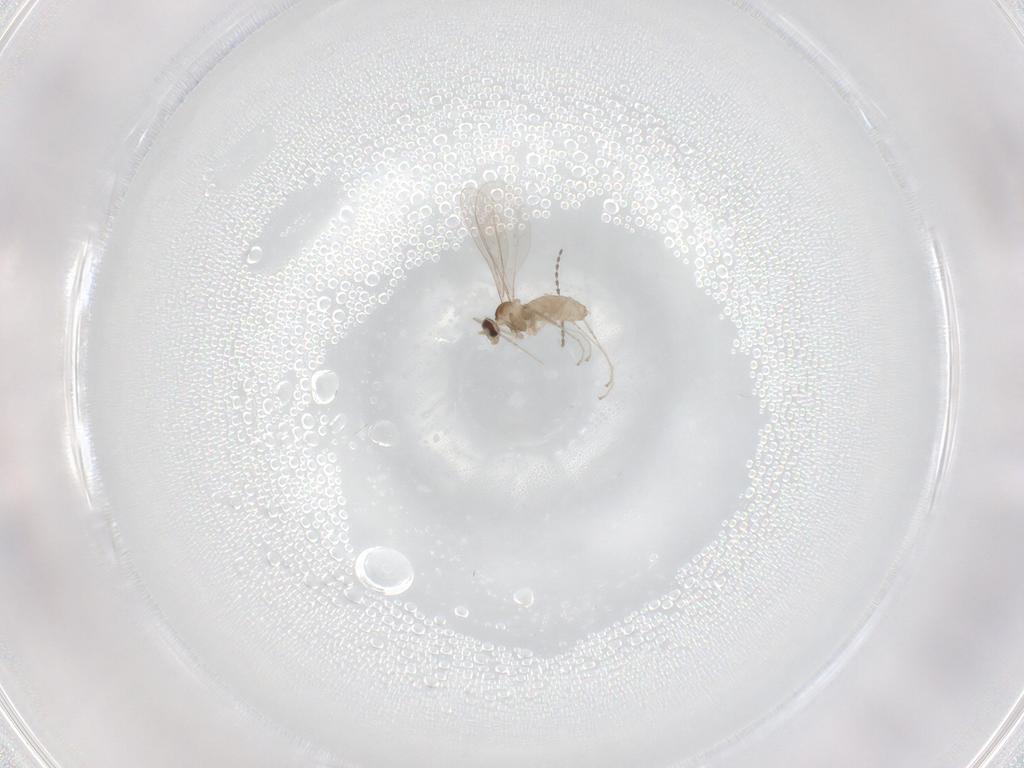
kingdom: Animalia
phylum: Arthropoda
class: Insecta
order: Diptera
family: Cecidomyiidae
